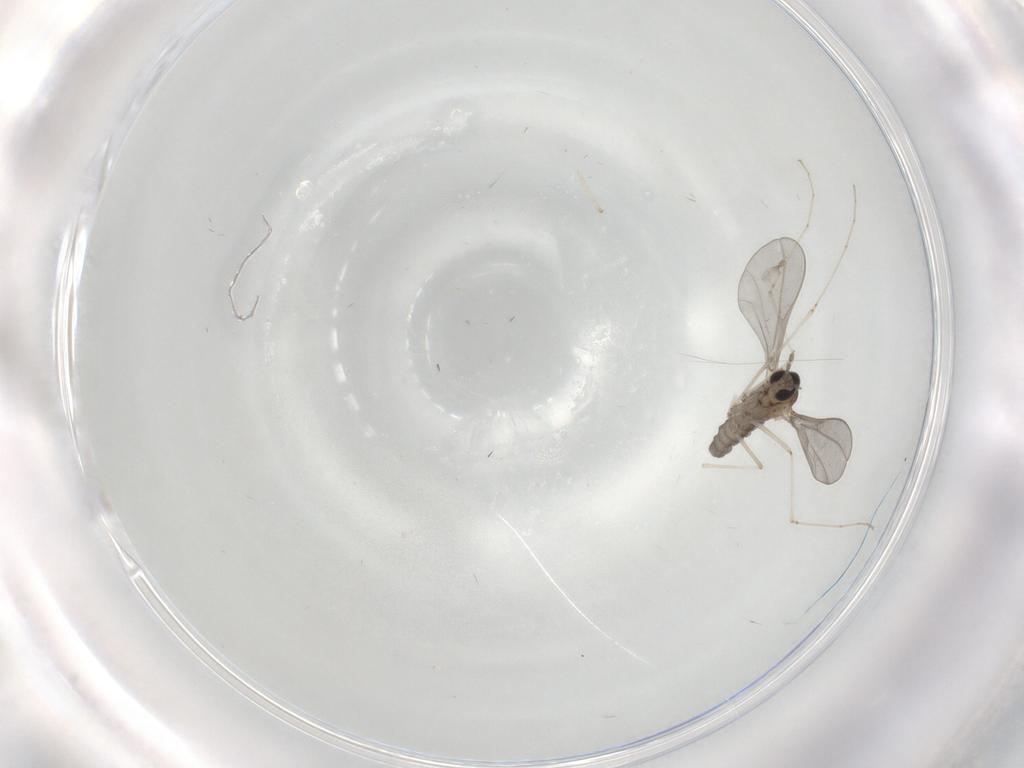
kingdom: Animalia
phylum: Arthropoda
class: Insecta
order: Diptera
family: Cecidomyiidae
